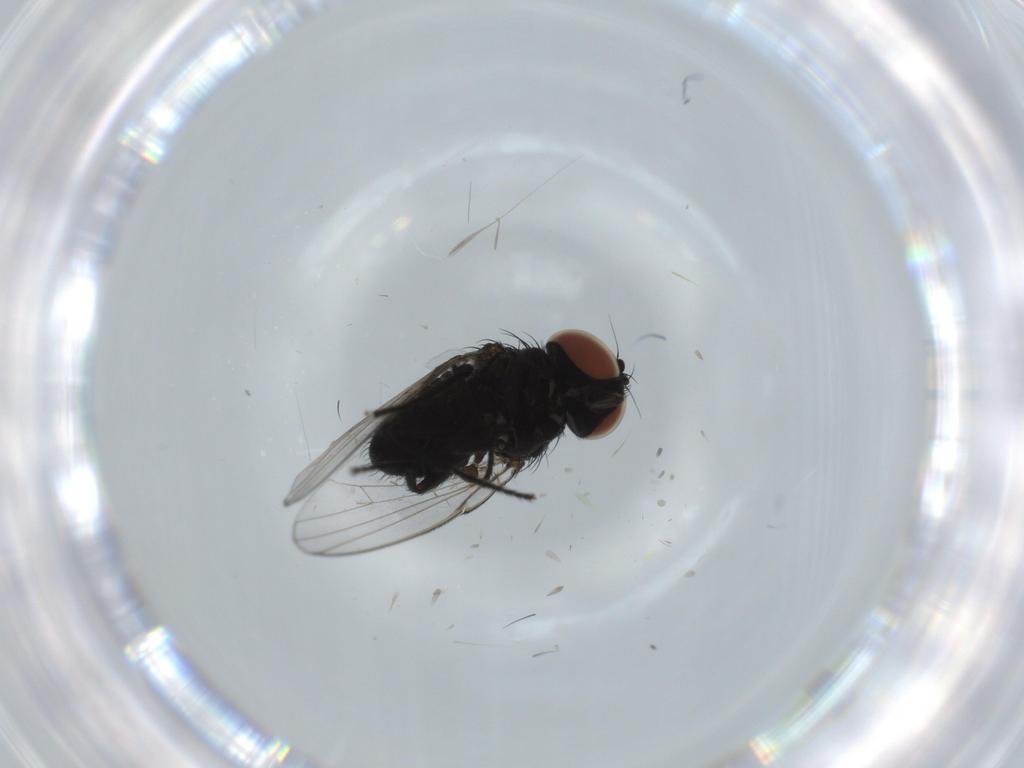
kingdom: Animalia
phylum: Arthropoda
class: Insecta
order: Diptera
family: Milichiidae
